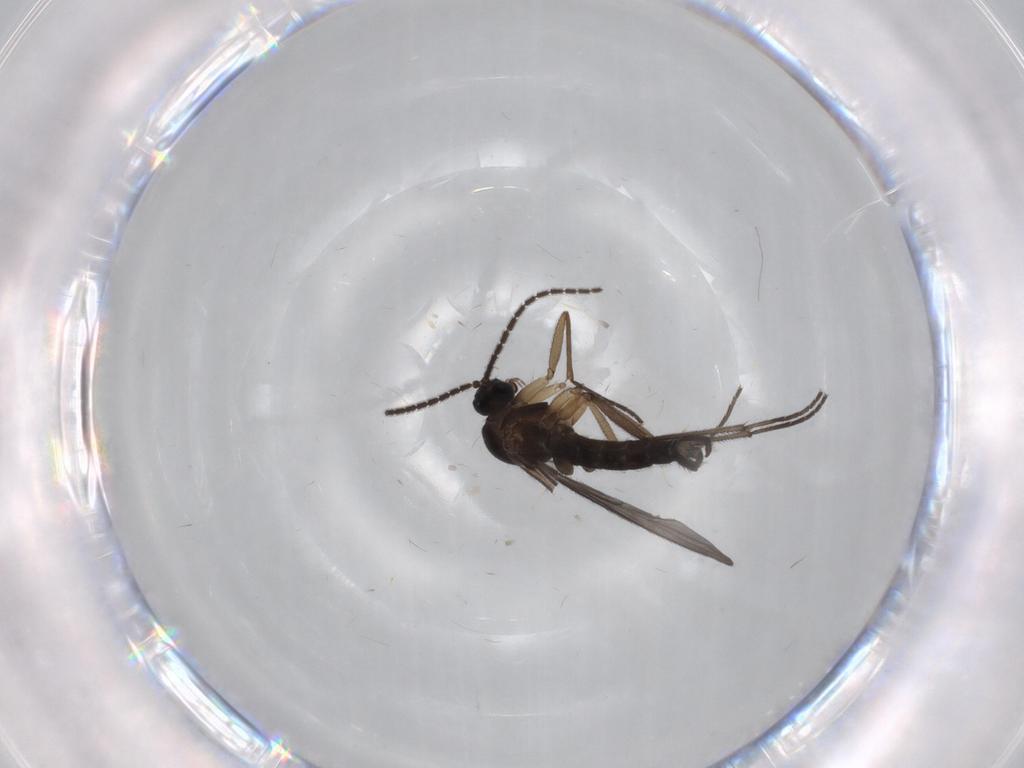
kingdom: Animalia
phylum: Arthropoda
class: Insecta
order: Diptera
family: Sciaridae
